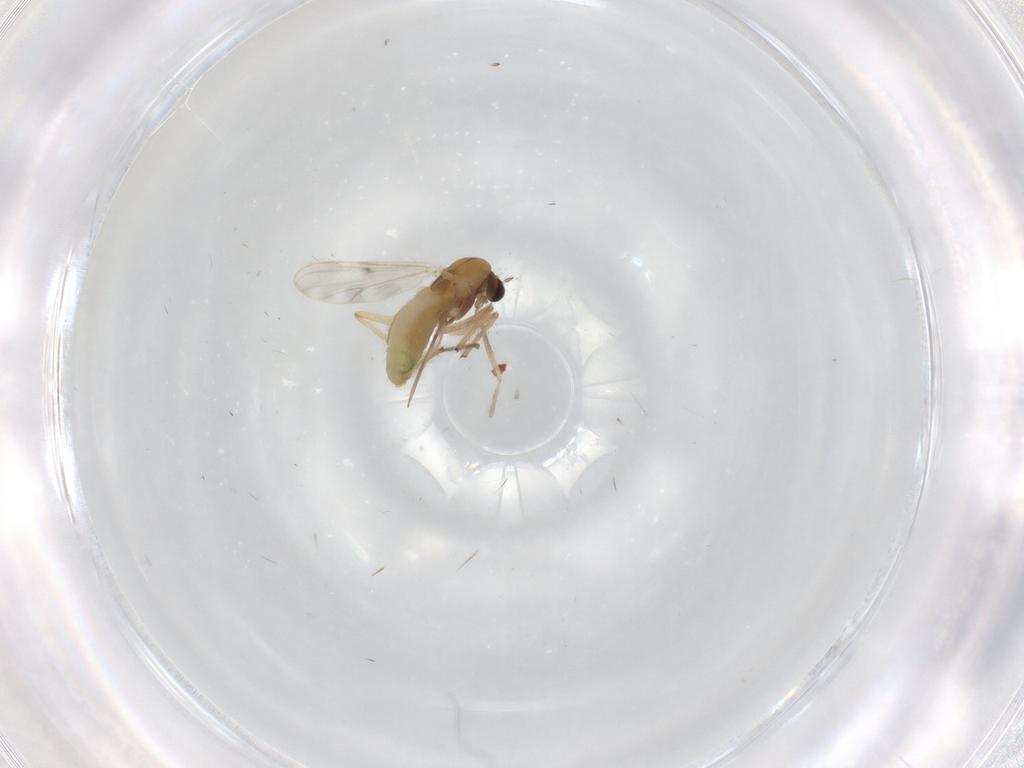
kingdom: Animalia
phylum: Arthropoda
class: Insecta
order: Diptera
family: Chironomidae
